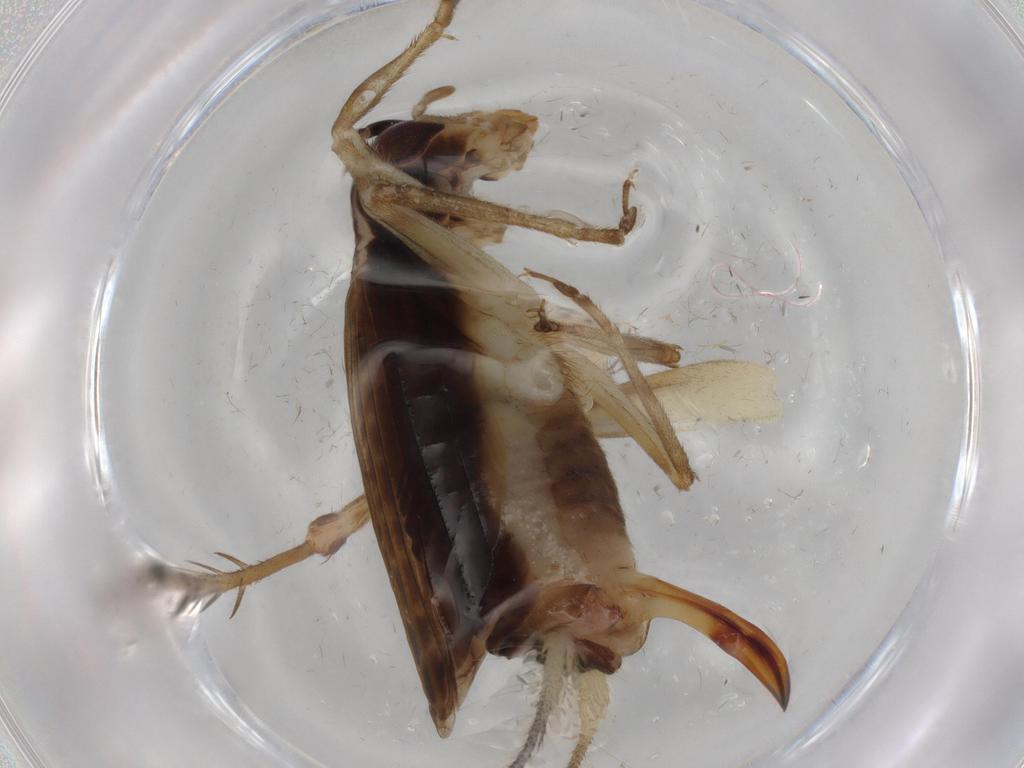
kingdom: Animalia
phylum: Arthropoda
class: Insecta
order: Orthoptera
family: Trigonidiidae
